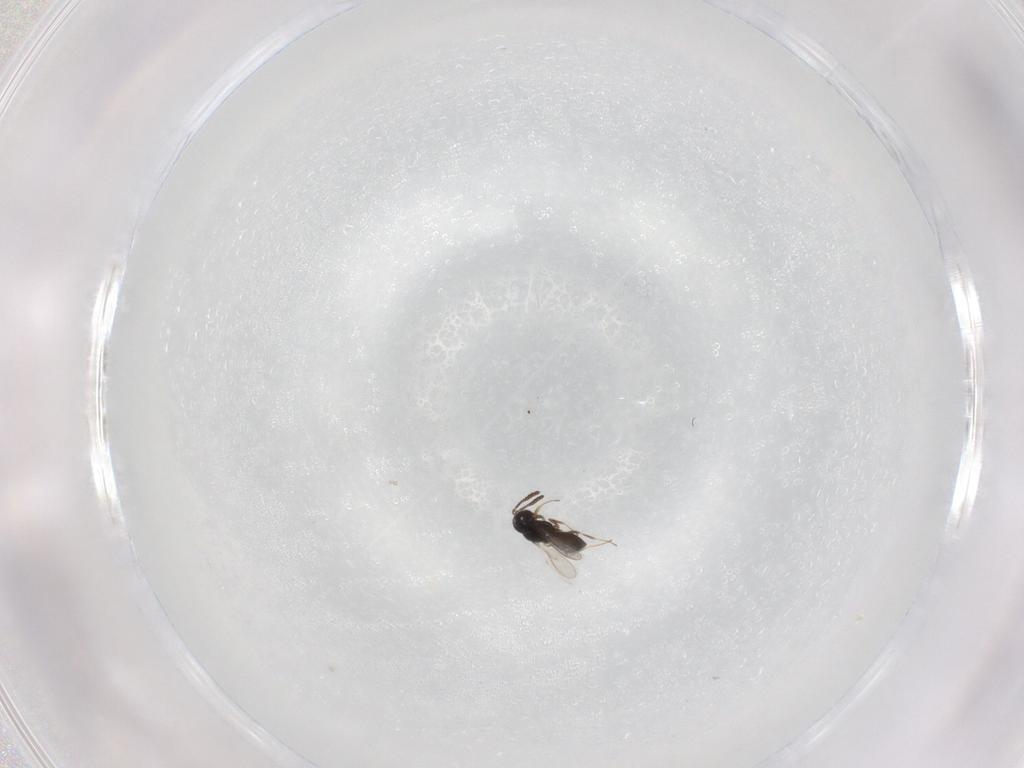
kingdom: Animalia
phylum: Arthropoda
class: Insecta
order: Hymenoptera
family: Scelionidae
